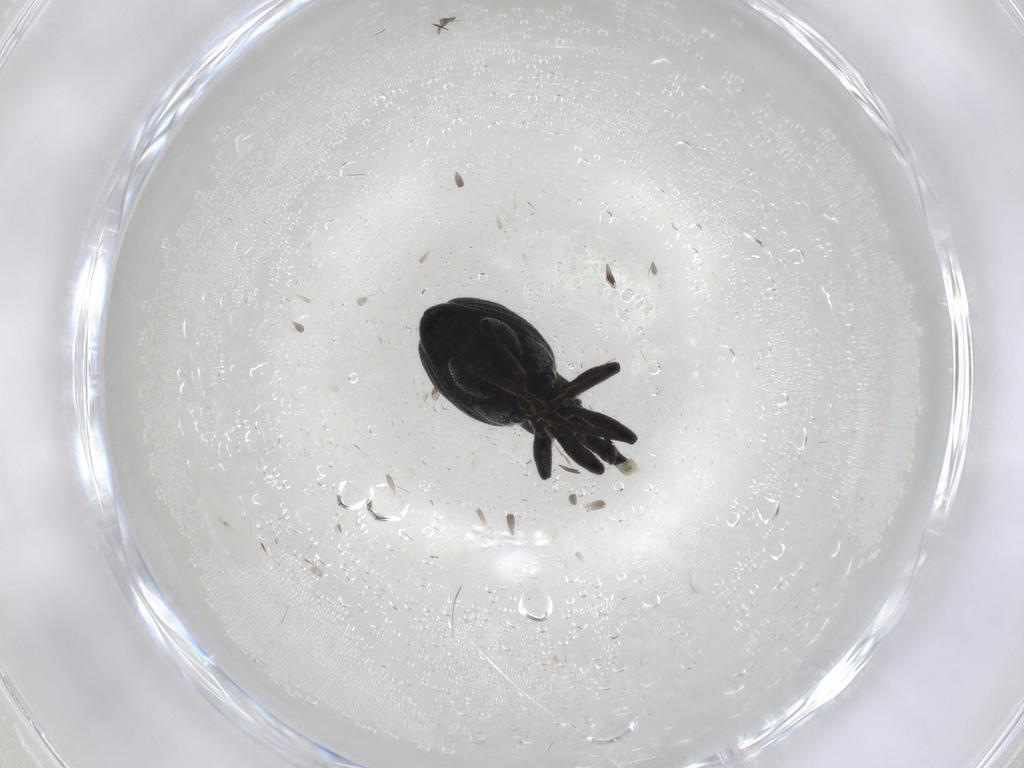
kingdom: Animalia
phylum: Arthropoda
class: Insecta
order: Coleoptera
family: Brentidae
